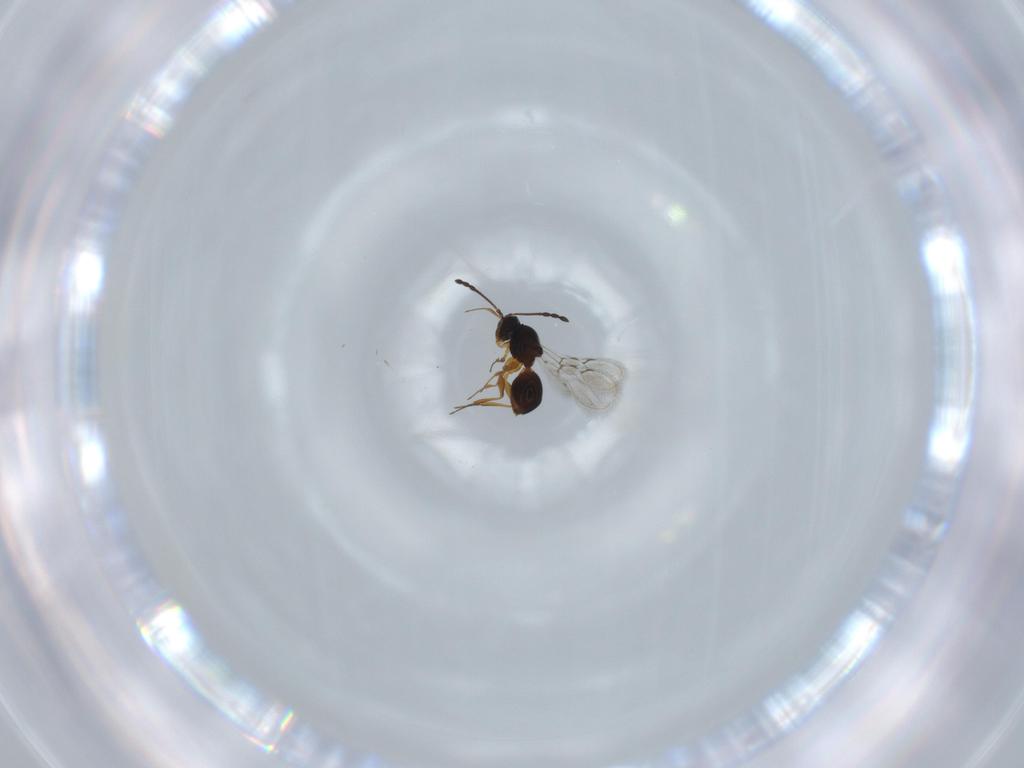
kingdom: Animalia
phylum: Arthropoda
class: Insecta
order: Hymenoptera
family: Figitidae
